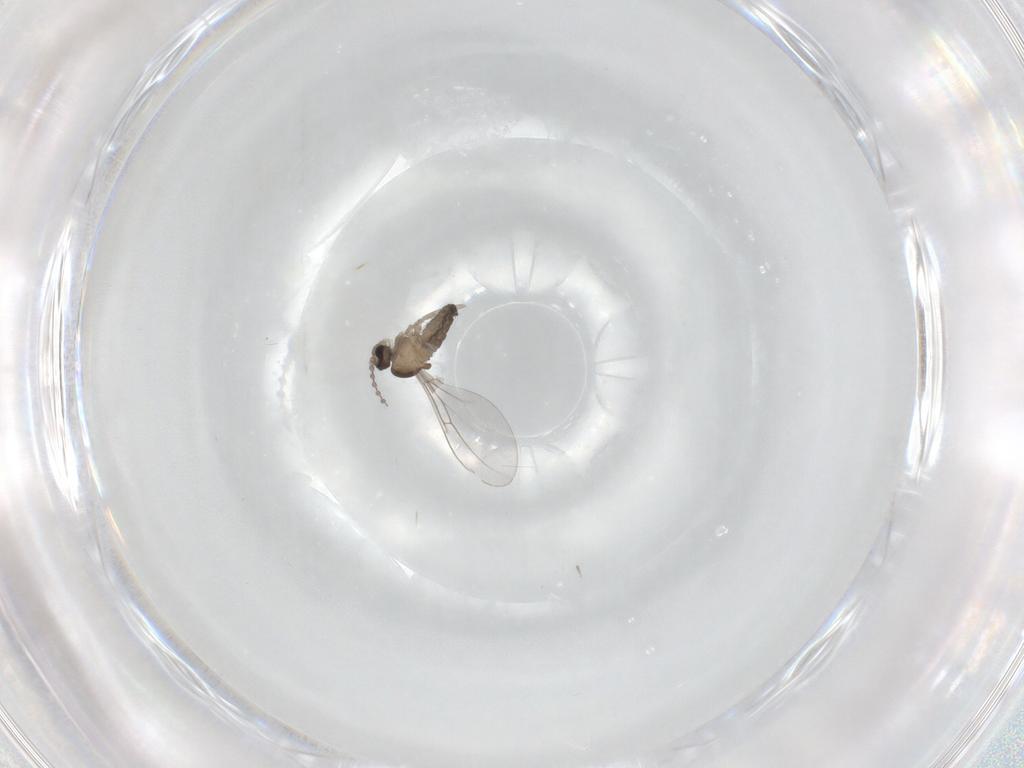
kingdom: Animalia
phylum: Arthropoda
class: Insecta
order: Diptera
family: Cecidomyiidae
